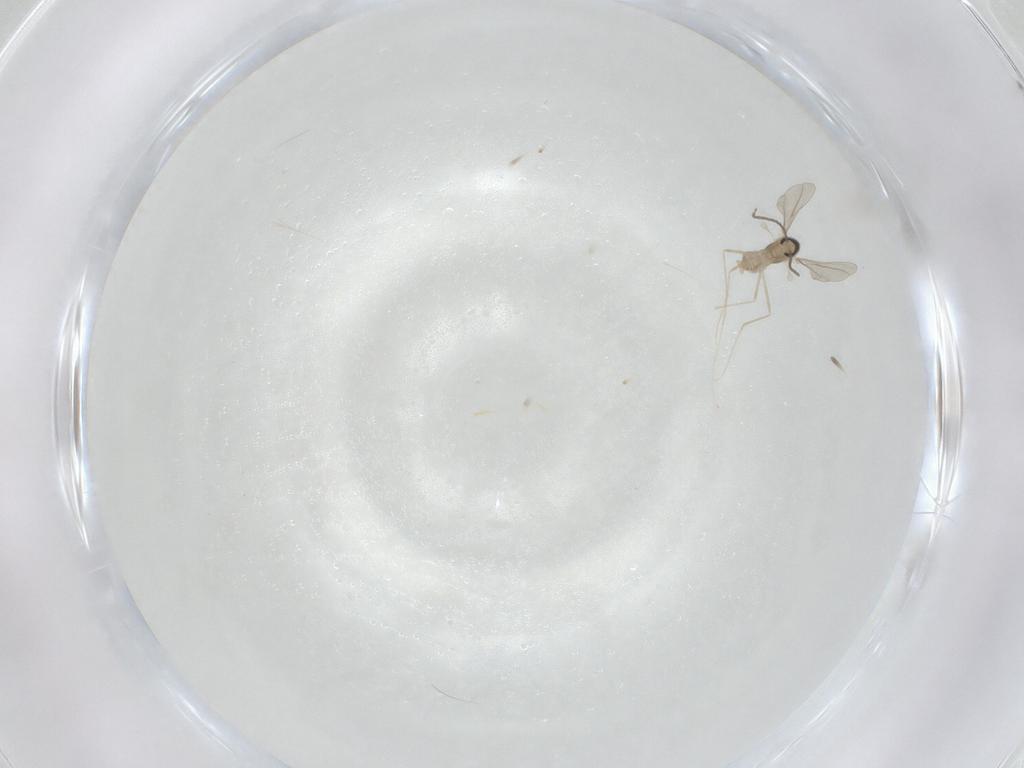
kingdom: Animalia
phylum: Arthropoda
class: Insecta
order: Diptera
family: Cecidomyiidae
